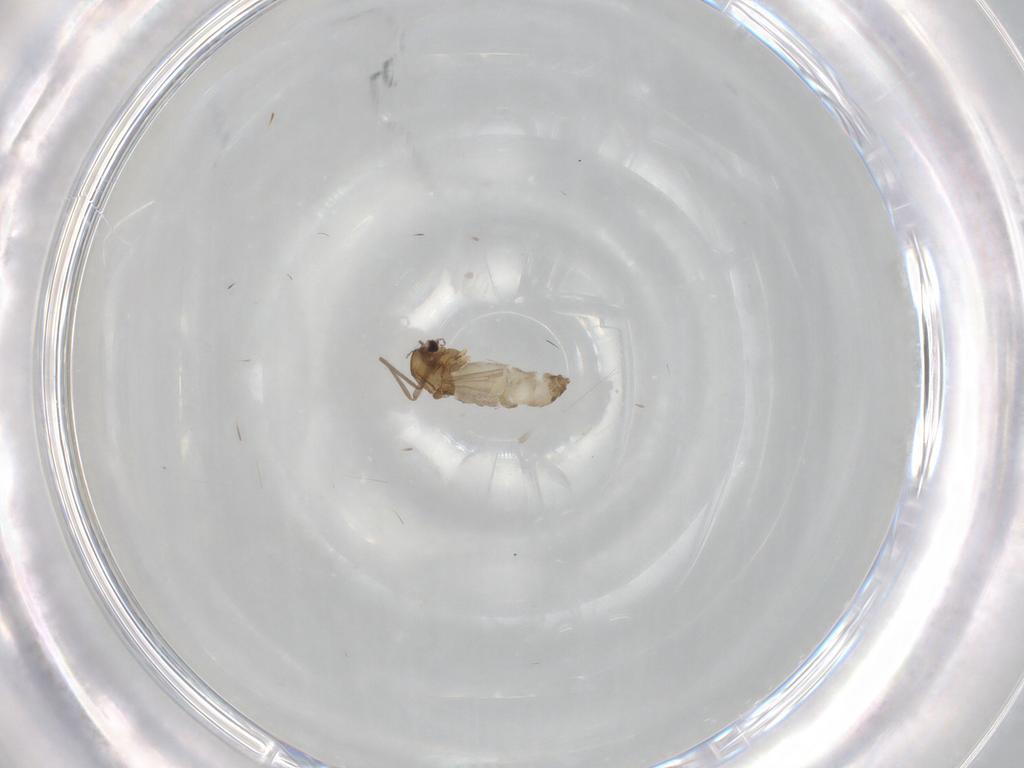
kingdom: Animalia
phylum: Arthropoda
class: Insecta
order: Diptera
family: Chironomidae
